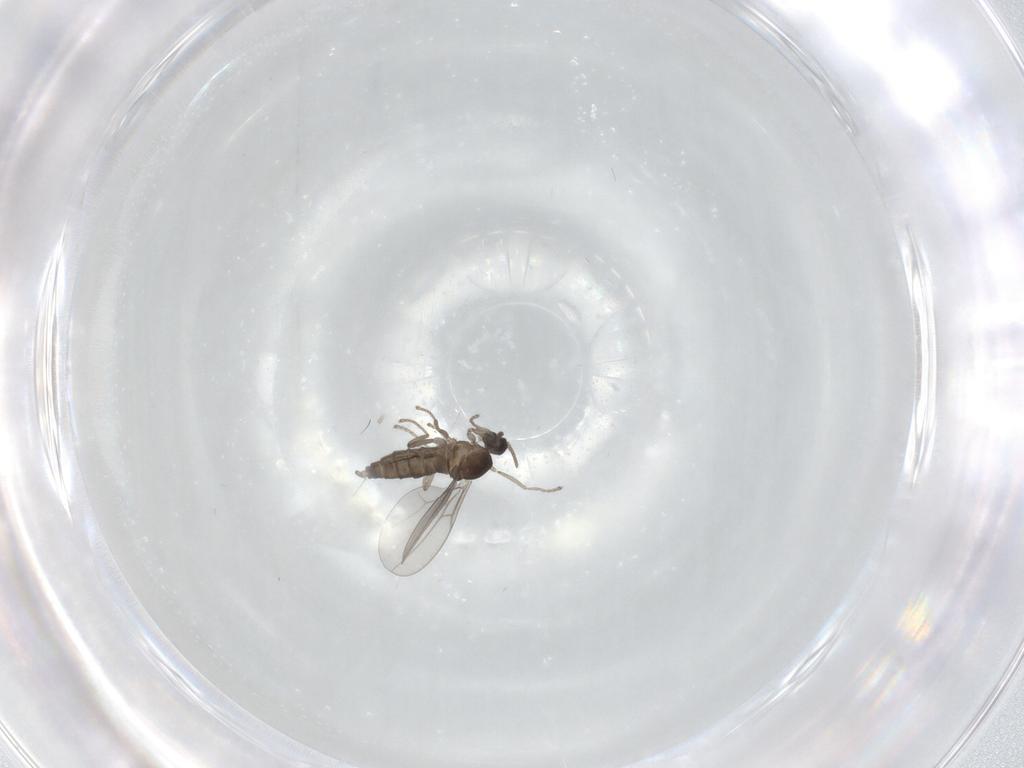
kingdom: Animalia
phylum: Arthropoda
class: Insecta
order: Diptera
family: Cecidomyiidae
